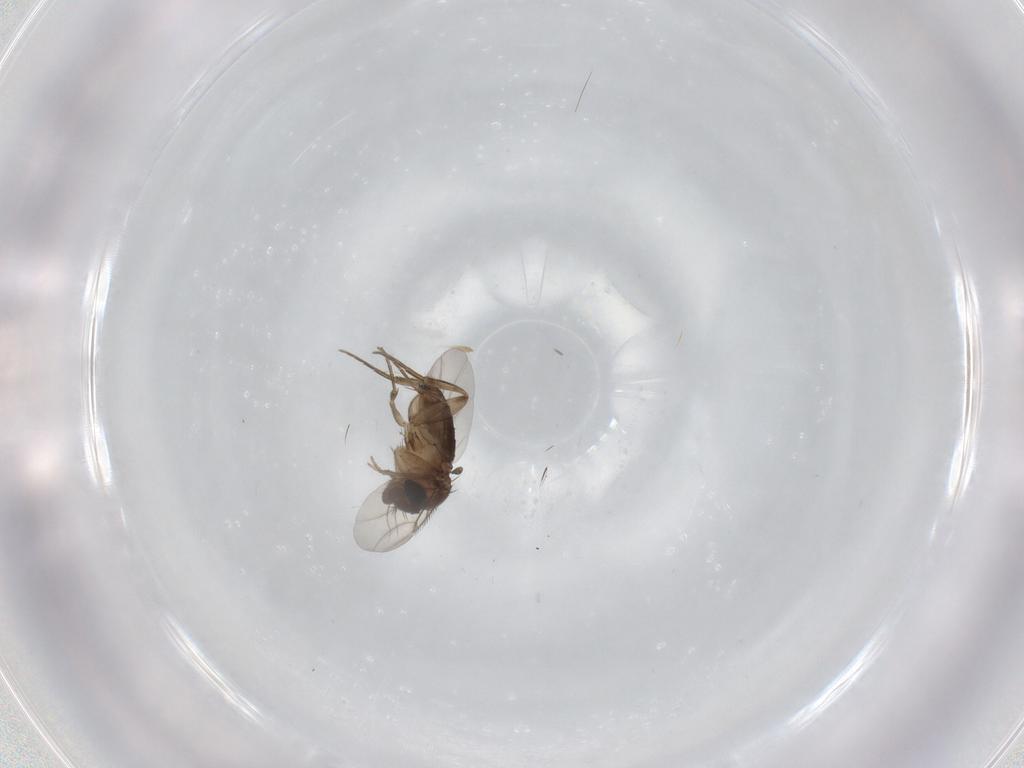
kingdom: Animalia
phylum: Arthropoda
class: Insecta
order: Diptera
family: Phoridae
